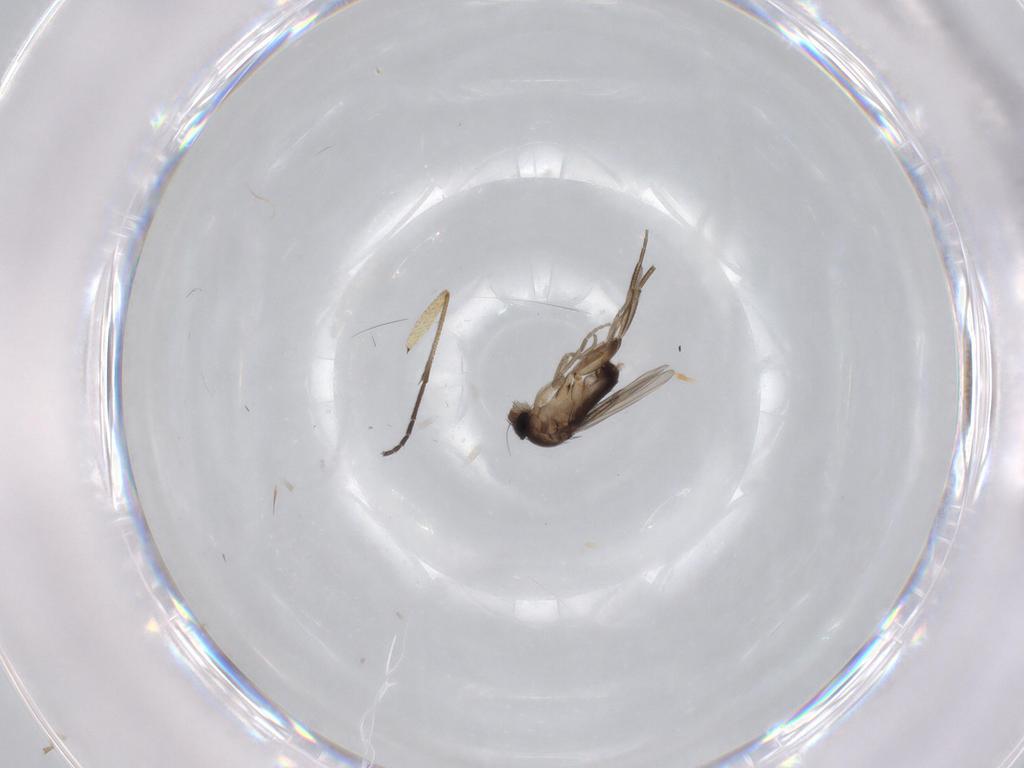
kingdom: Animalia
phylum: Arthropoda
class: Insecta
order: Diptera
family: Phoridae
